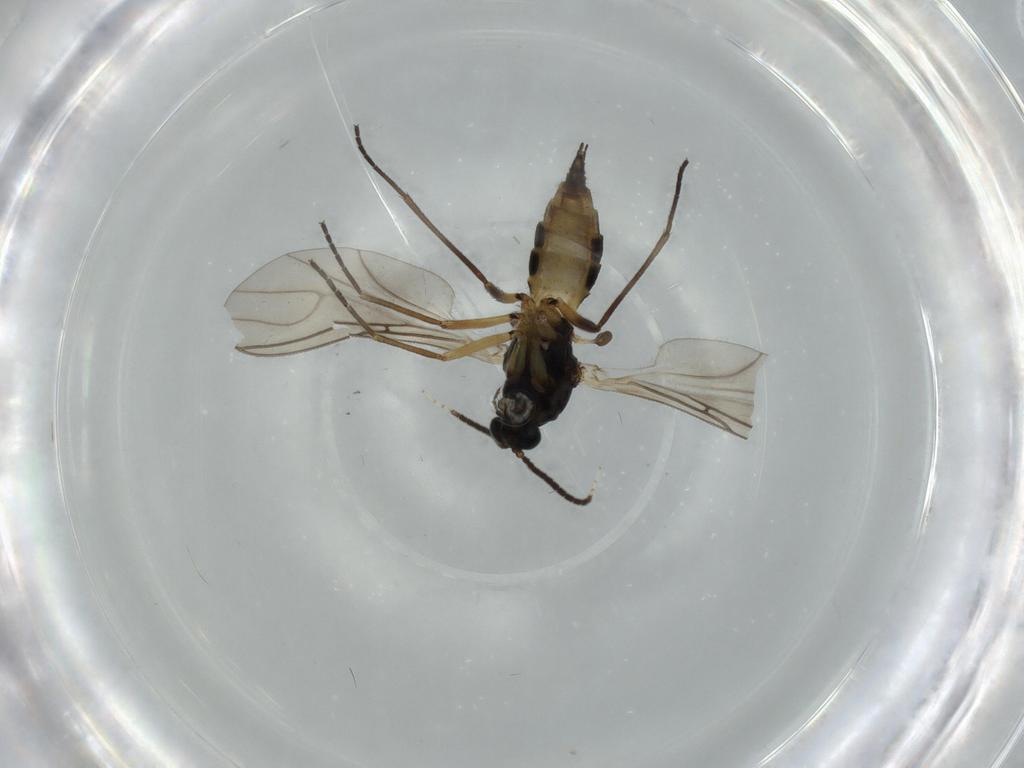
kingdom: Animalia
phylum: Arthropoda
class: Insecta
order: Diptera
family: Sciaridae
